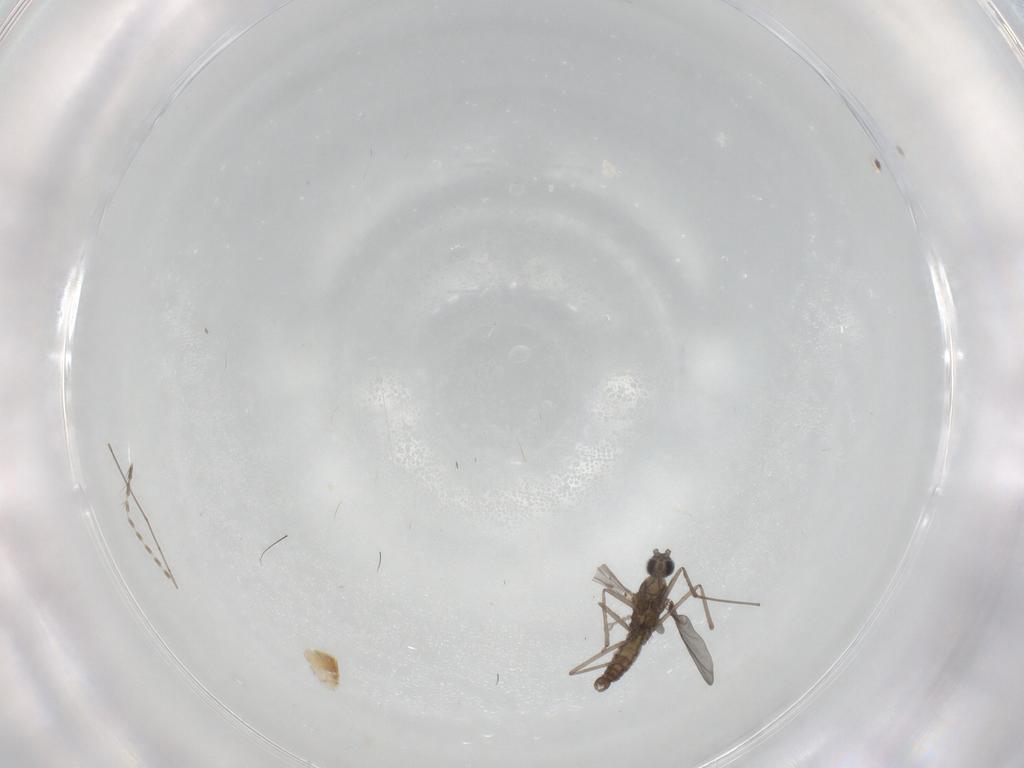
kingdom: Animalia
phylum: Arthropoda
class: Insecta
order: Diptera
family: Cecidomyiidae
